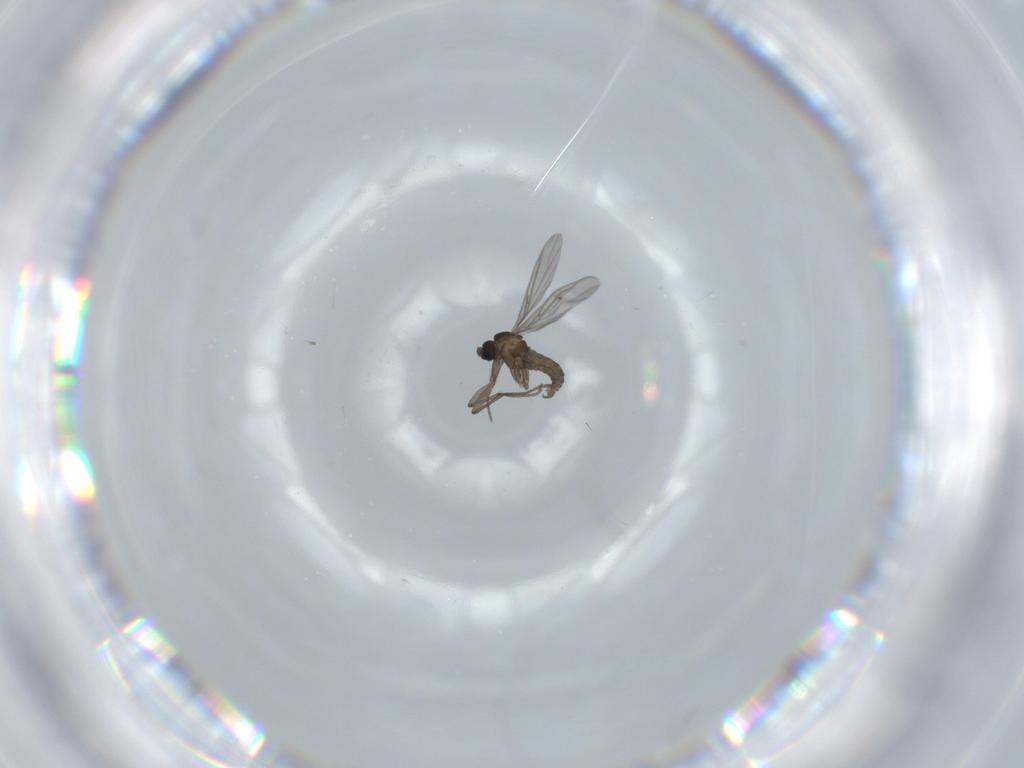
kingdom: Animalia
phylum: Arthropoda
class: Insecta
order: Diptera
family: Sciaridae
